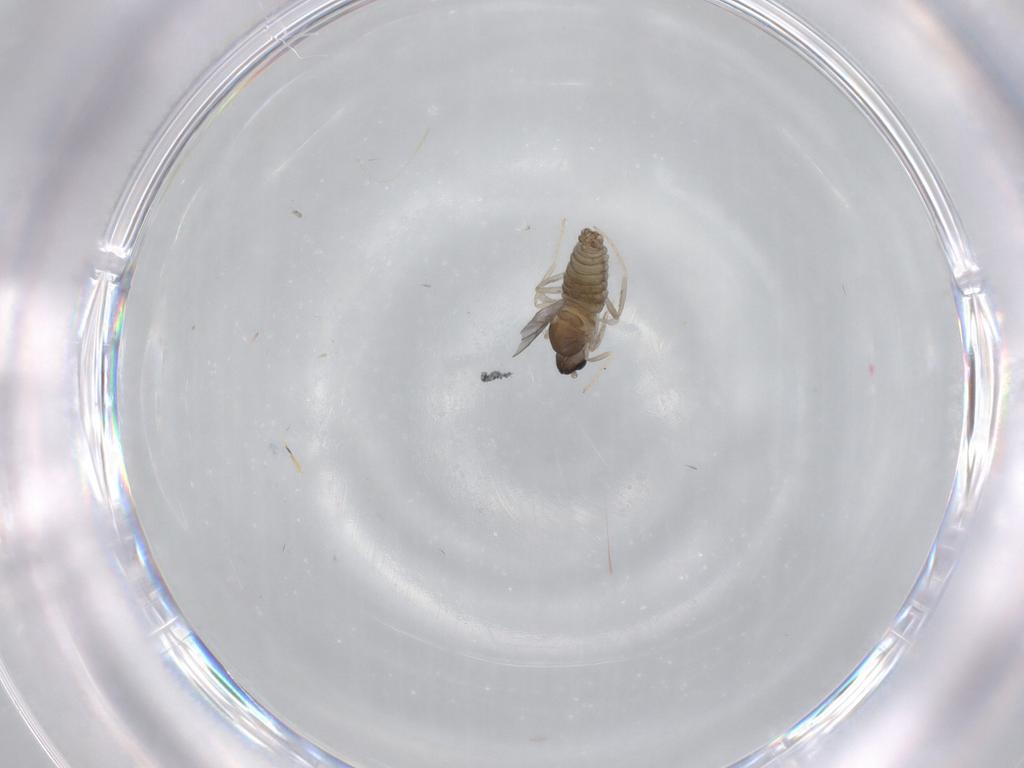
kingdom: Animalia
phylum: Arthropoda
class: Insecta
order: Diptera
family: Cecidomyiidae
